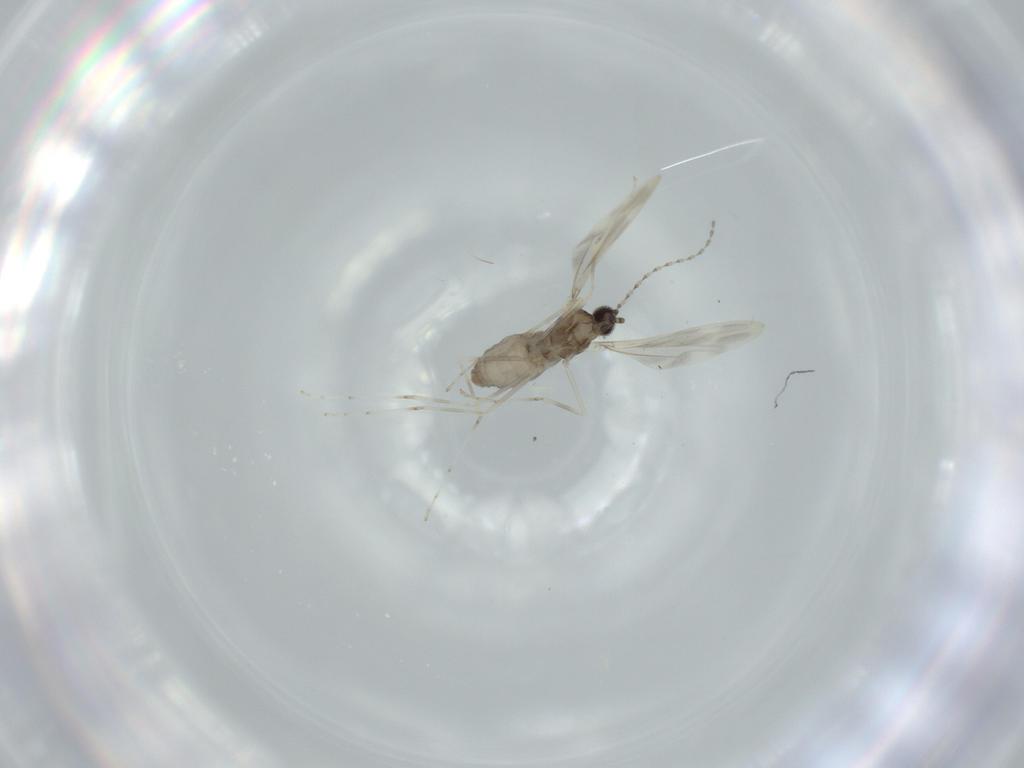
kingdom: Animalia
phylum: Arthropoda
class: Insecta
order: Diptera
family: Cecidomyiidae
